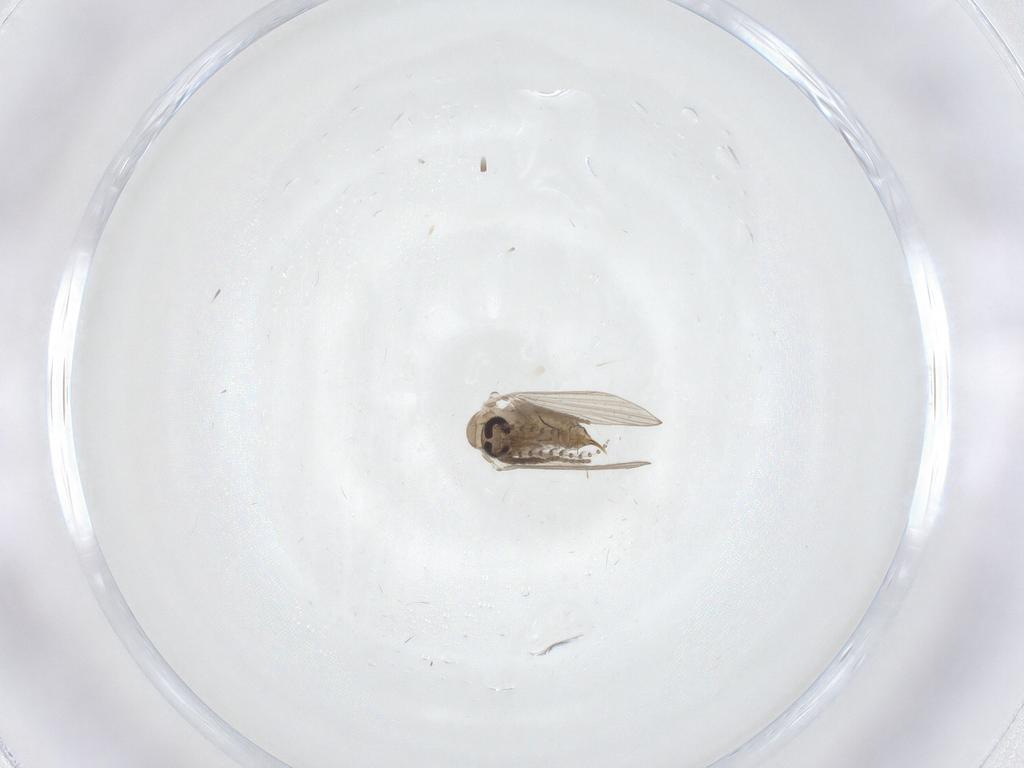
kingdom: Animalia
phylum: Arthropoda
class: Insecta
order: Diptera
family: Psychodidae
